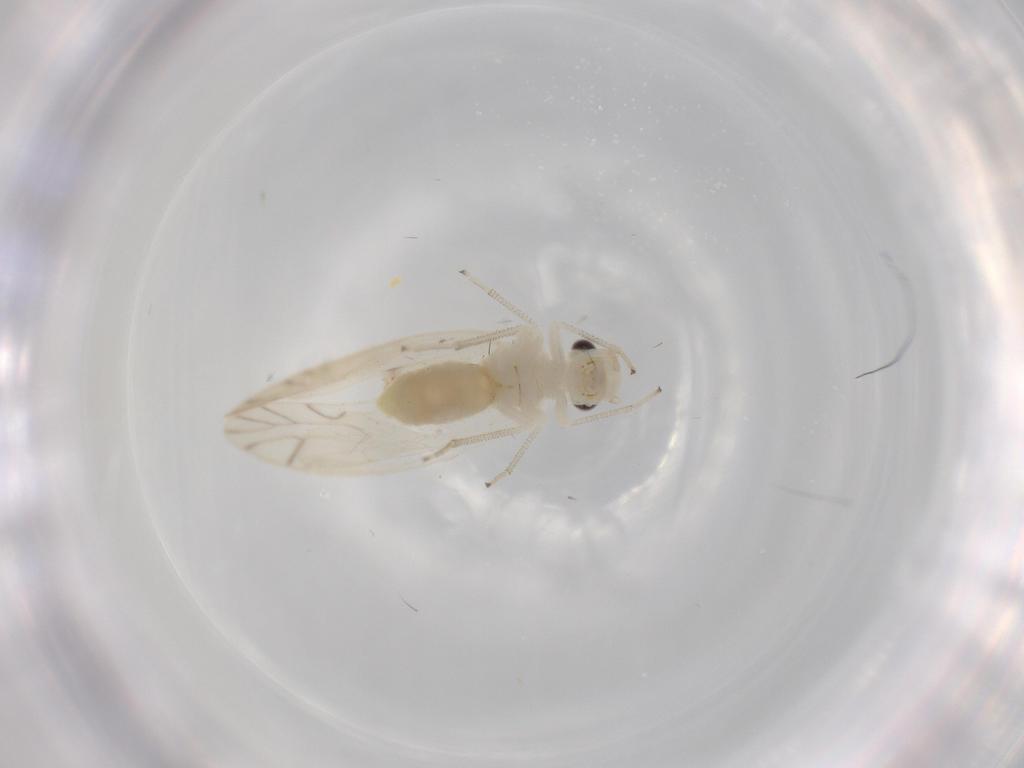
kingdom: Animalia
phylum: Arthropoda
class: Insecta
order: Psocodea
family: Caeciliusidae
